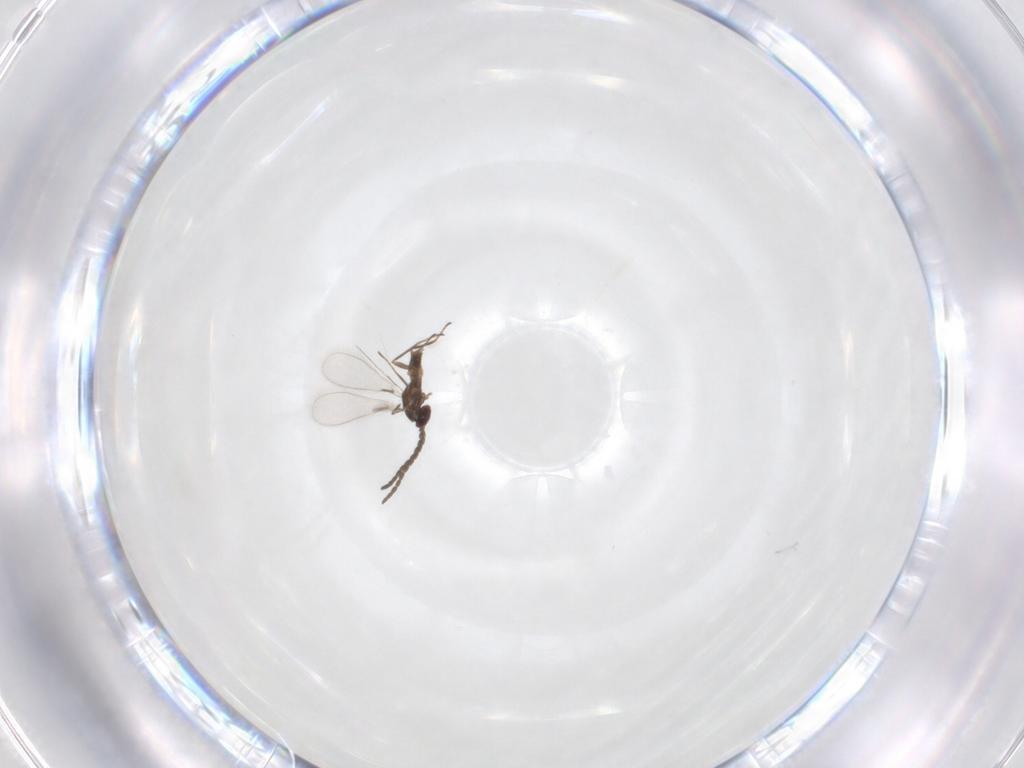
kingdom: Animalia
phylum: Arthropoda
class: Insecta
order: Hymenoptera
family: Mymaridae
